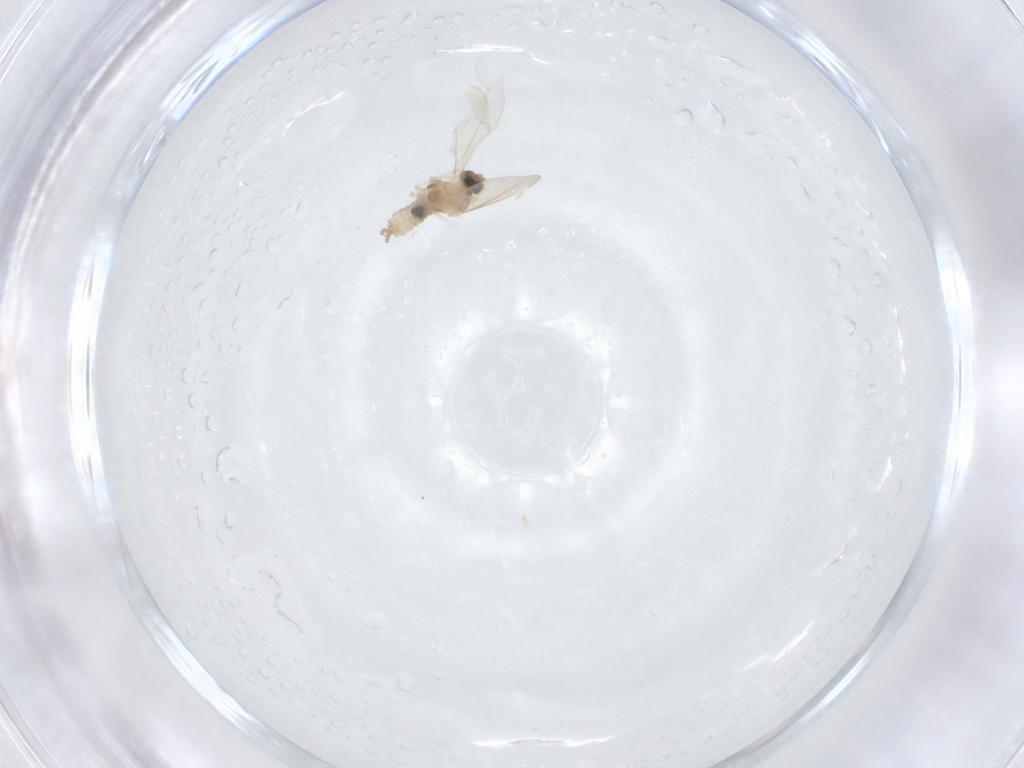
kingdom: Animalia
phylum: Arthropoda
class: Insecta
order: Diptera
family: Cecidomyiidae
